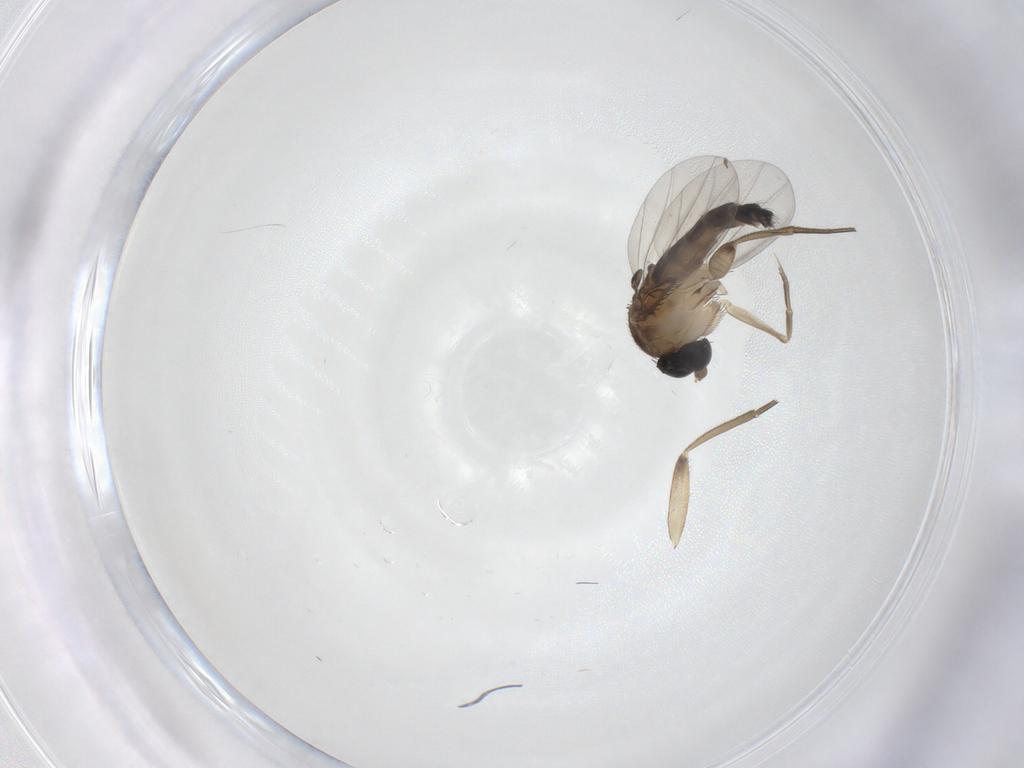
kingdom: Animalia
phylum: Arthropoda
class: Insecta
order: Diptera
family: Phoridae
